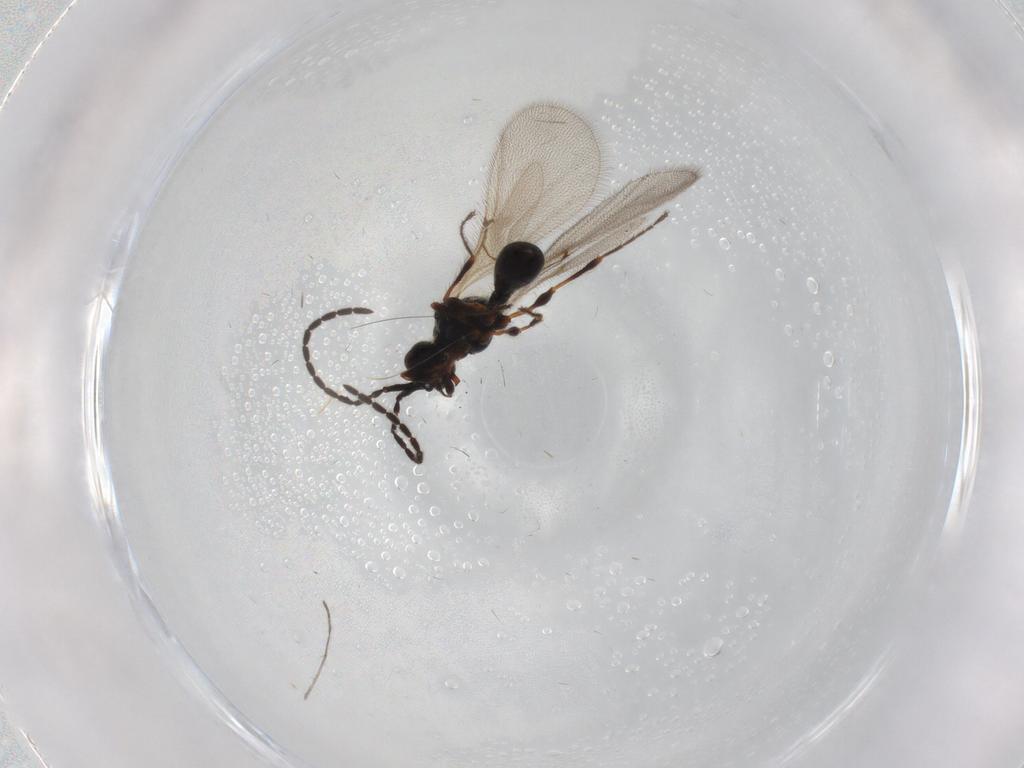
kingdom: Animalia
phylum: Arthropoda
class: Insecta
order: Hymenoptera
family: Diapriidae
